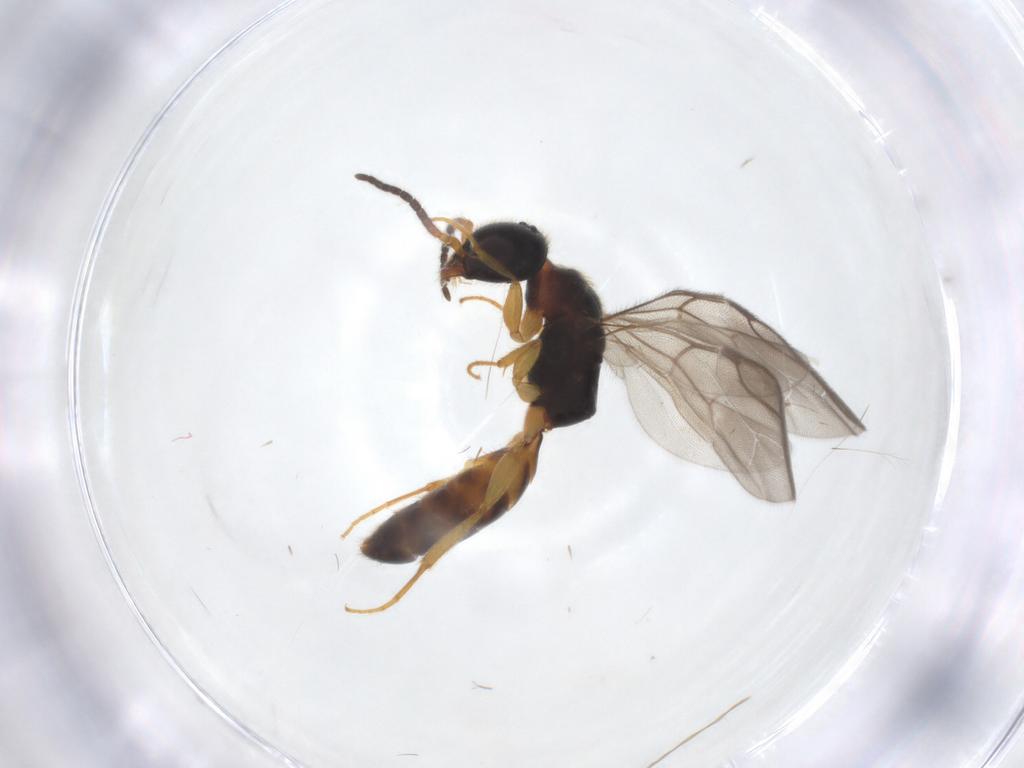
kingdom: Animalia
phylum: Arthropoda
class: Insecta
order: Hymenoptera
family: Bethylidae
